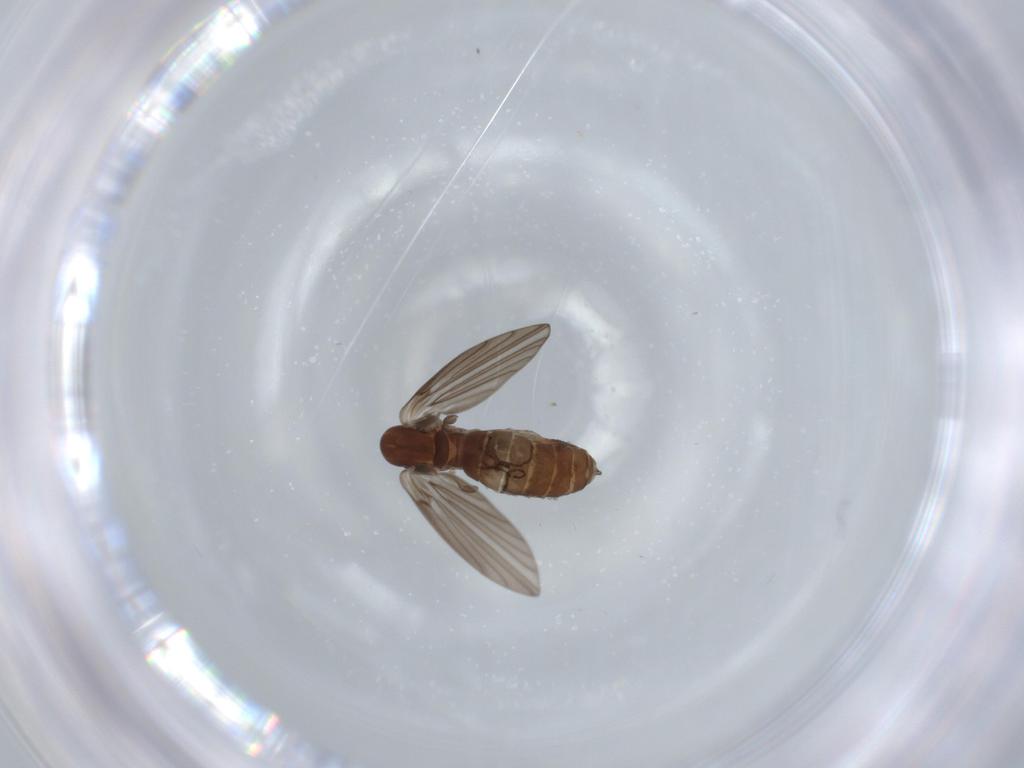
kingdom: Animalia
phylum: Arthropoda
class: Insecta
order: Diptera
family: Psychodidae
